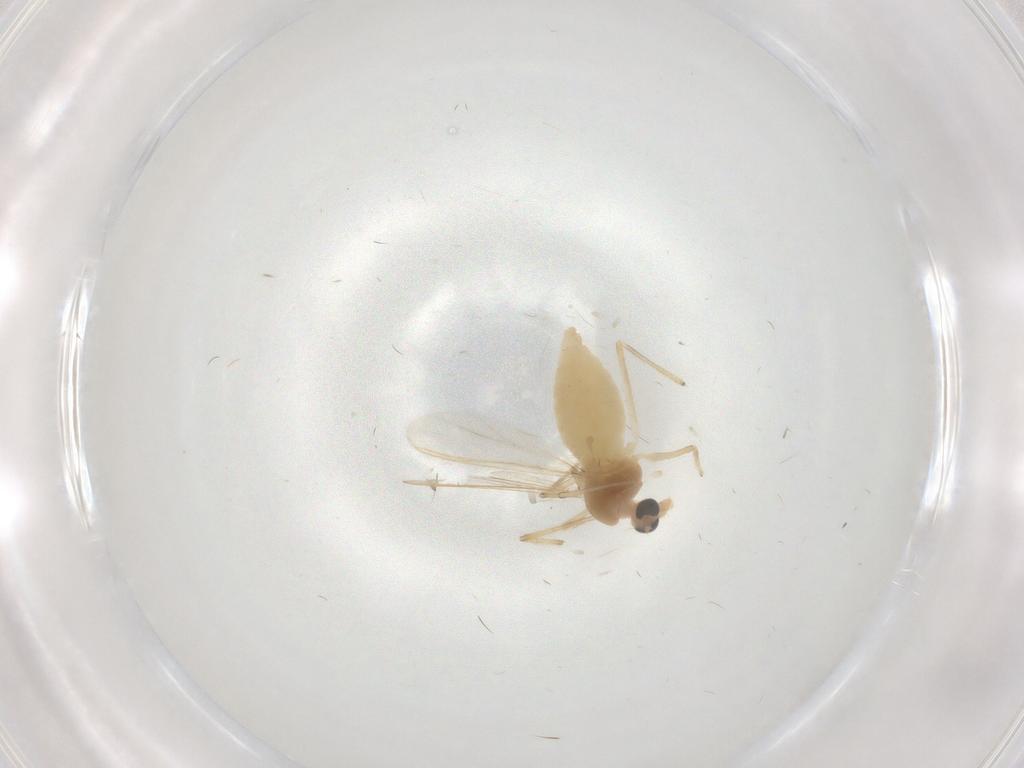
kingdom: Animalia
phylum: Arthropoda
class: Insecta
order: Diptera
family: Chironomidae
